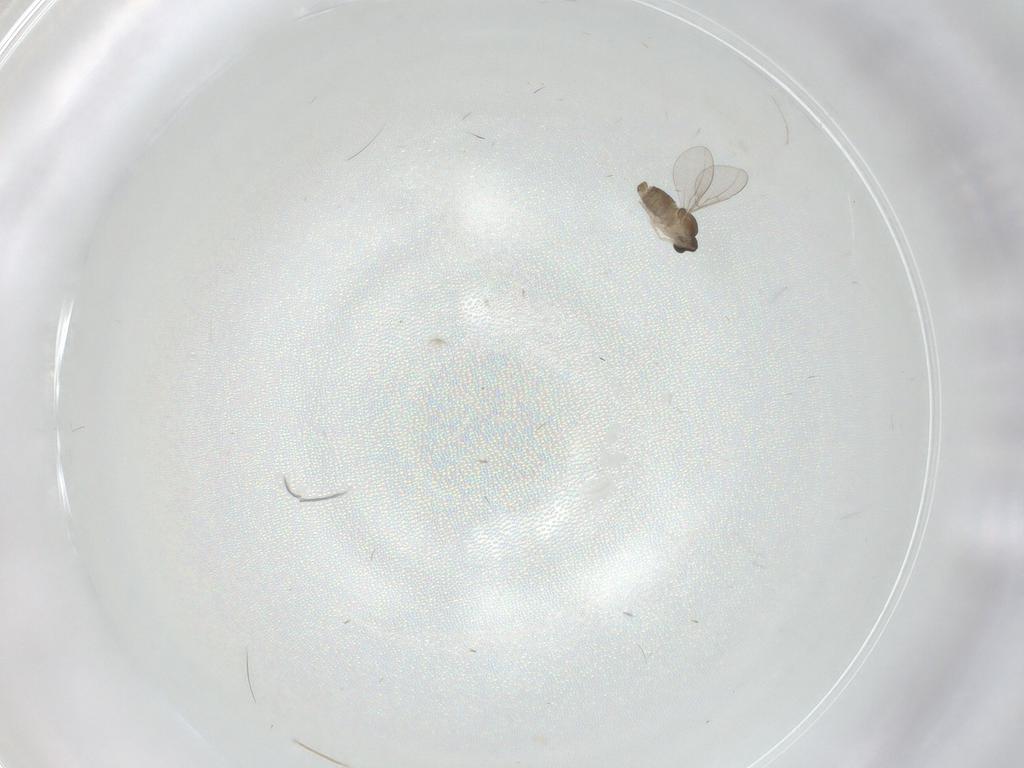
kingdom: Animalia
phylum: Arthropoda
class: Insecta
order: Diptera
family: Cecidomyiidae
